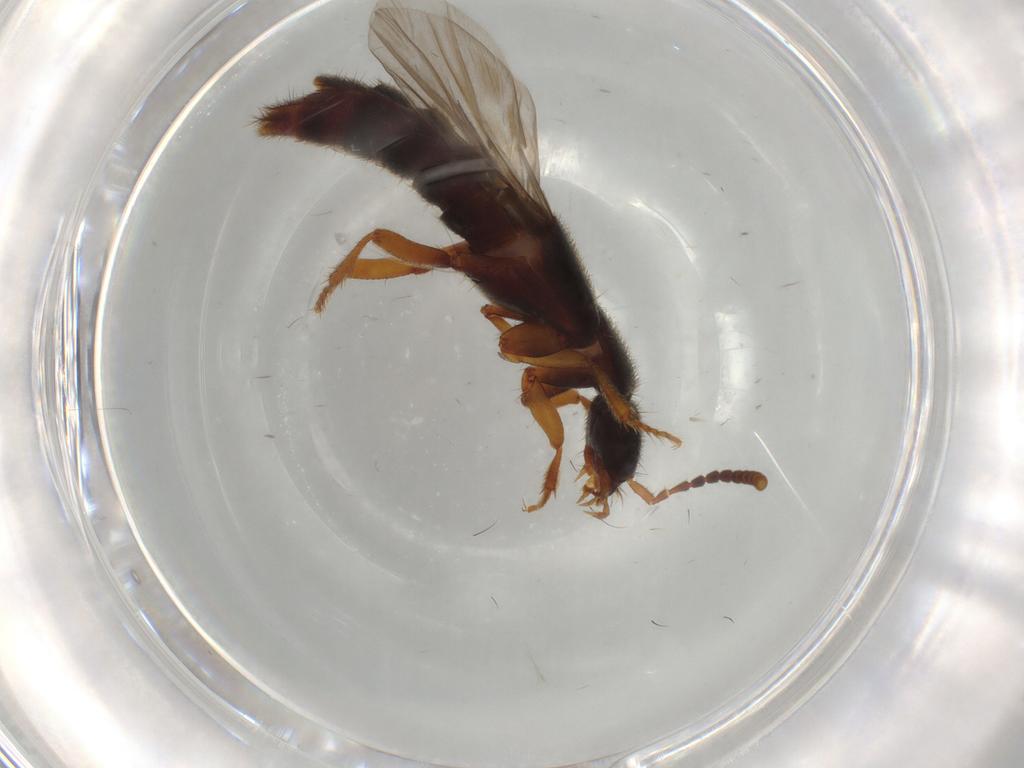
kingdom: Animalia
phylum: Arthropoda
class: Insecta
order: Coleoptera
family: Staphylinidae
